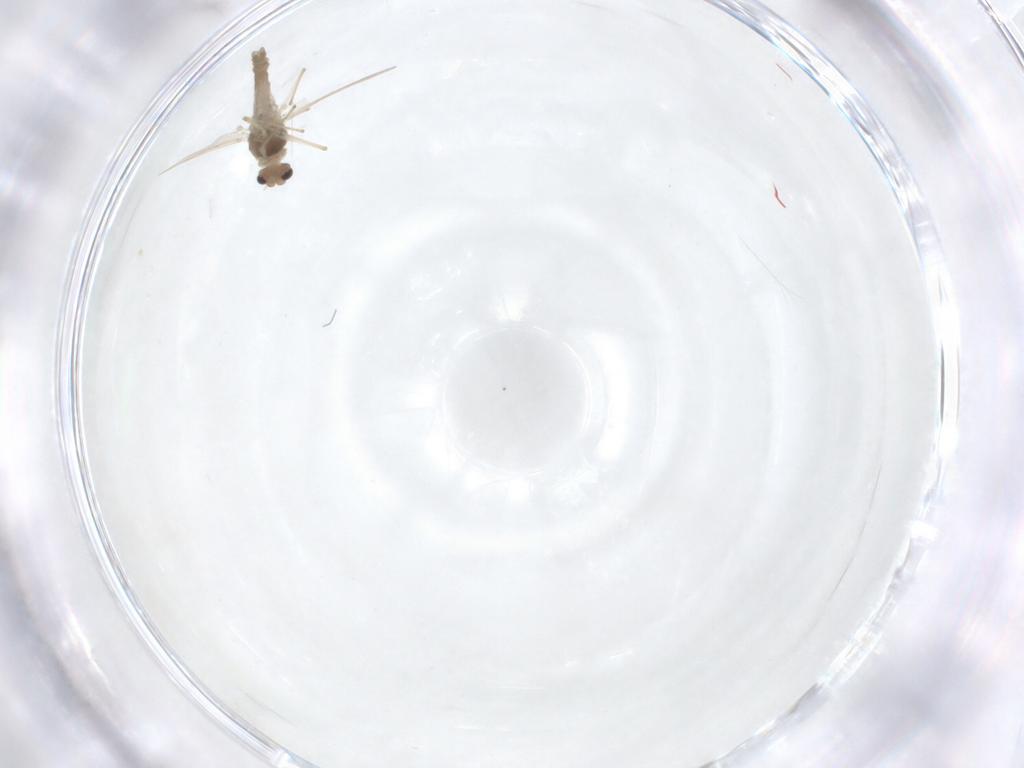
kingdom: Animalia
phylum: Arthropoda
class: Insecta
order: Diptera
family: Chironomidae
